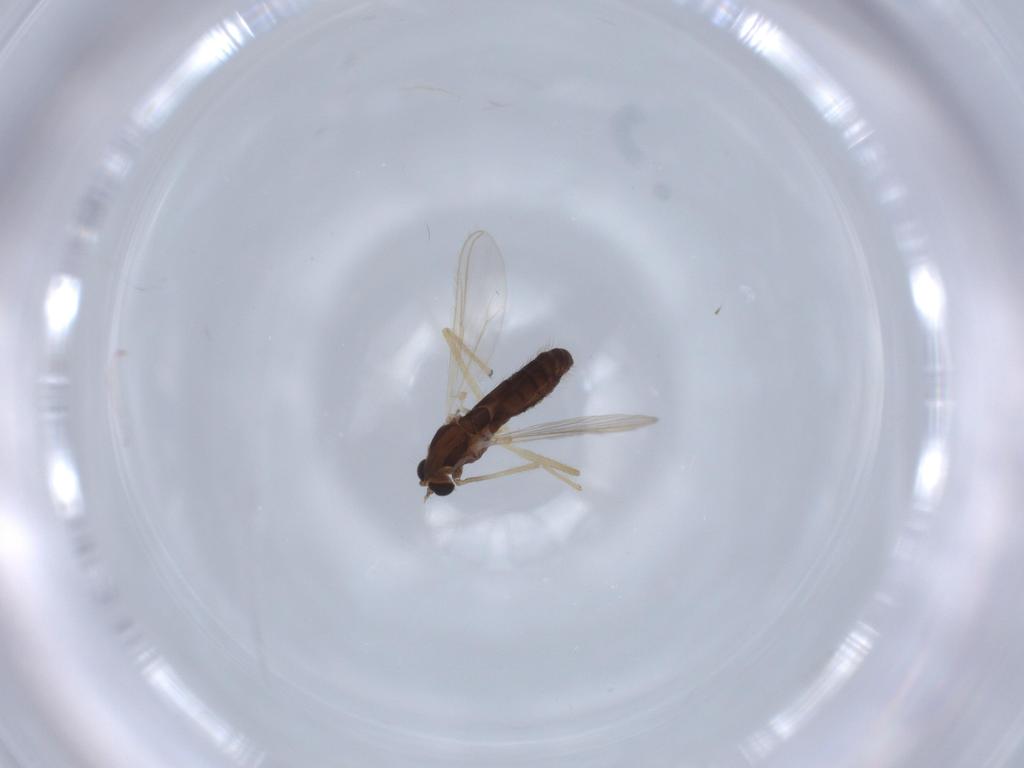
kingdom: Animalia
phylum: Arthropoda
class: Insecta
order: Diptera
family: Chironomidae
